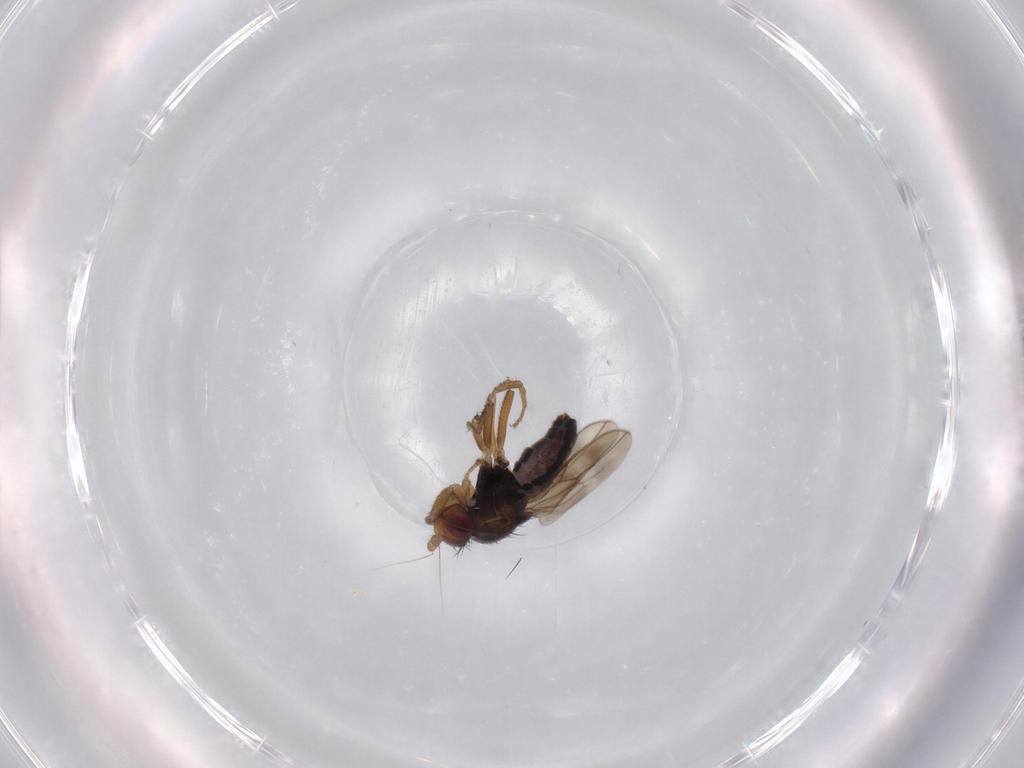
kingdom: Animalia
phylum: Arthropoda
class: Insecta
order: Diptera
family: Sphaeroceridae
